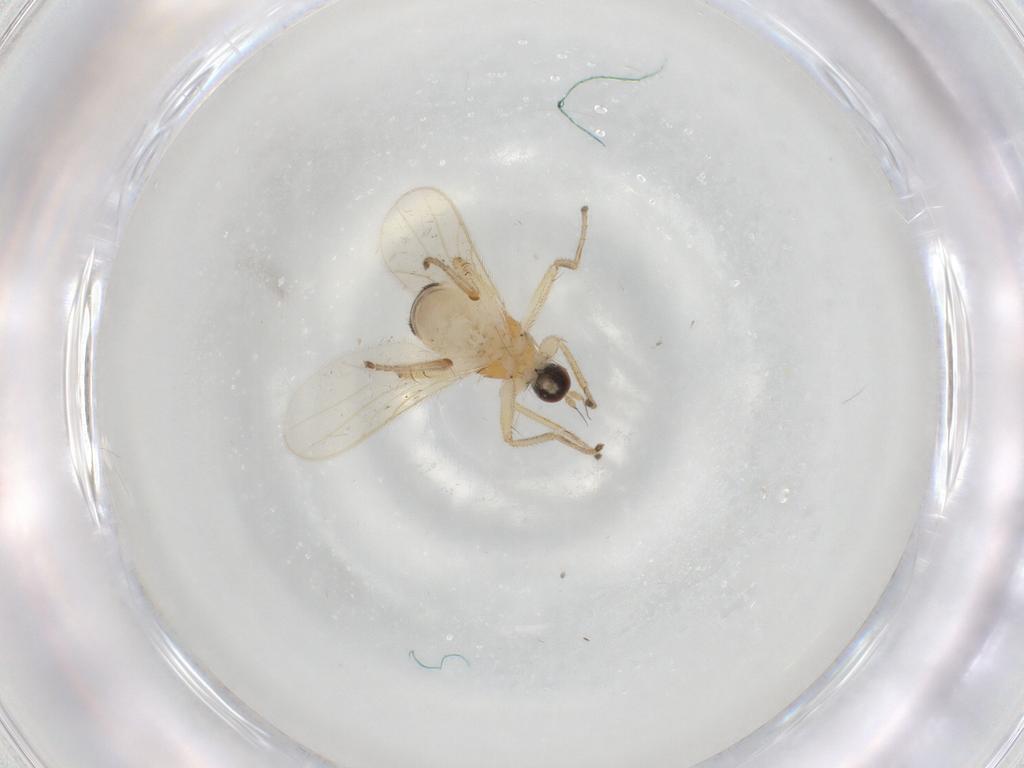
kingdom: Animalia
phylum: Arthropoda
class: Insecta
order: Diptera
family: Hybotidae
